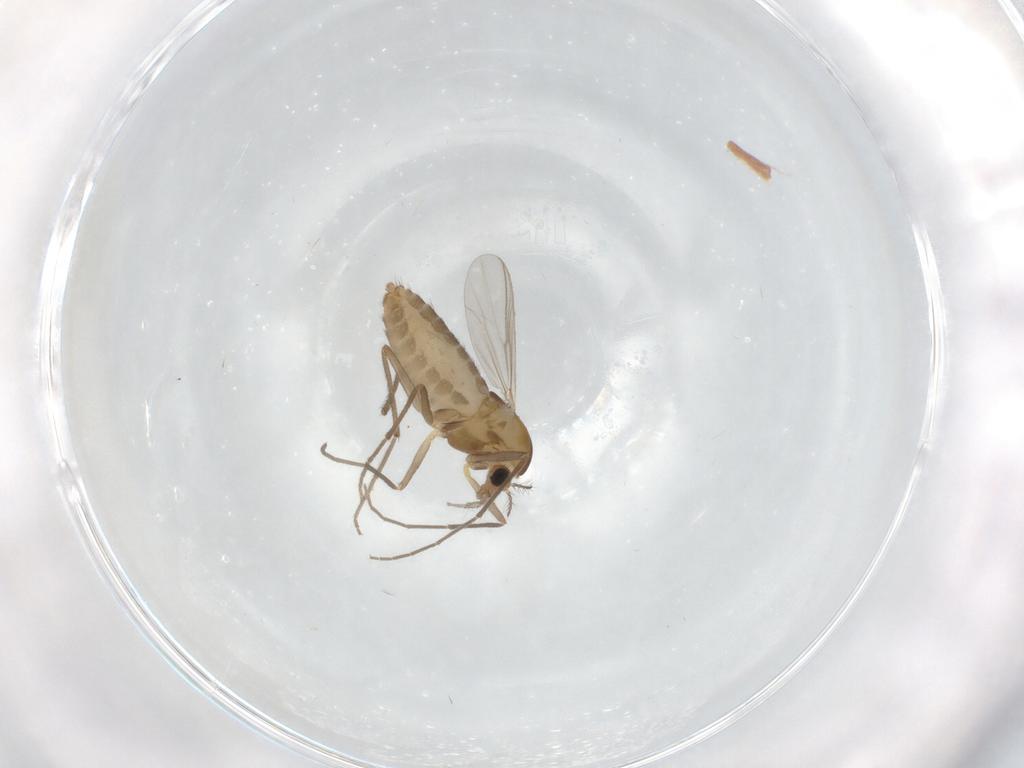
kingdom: Animalia
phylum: Arthropoda
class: Insecta
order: Diptera
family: Chironomidae
